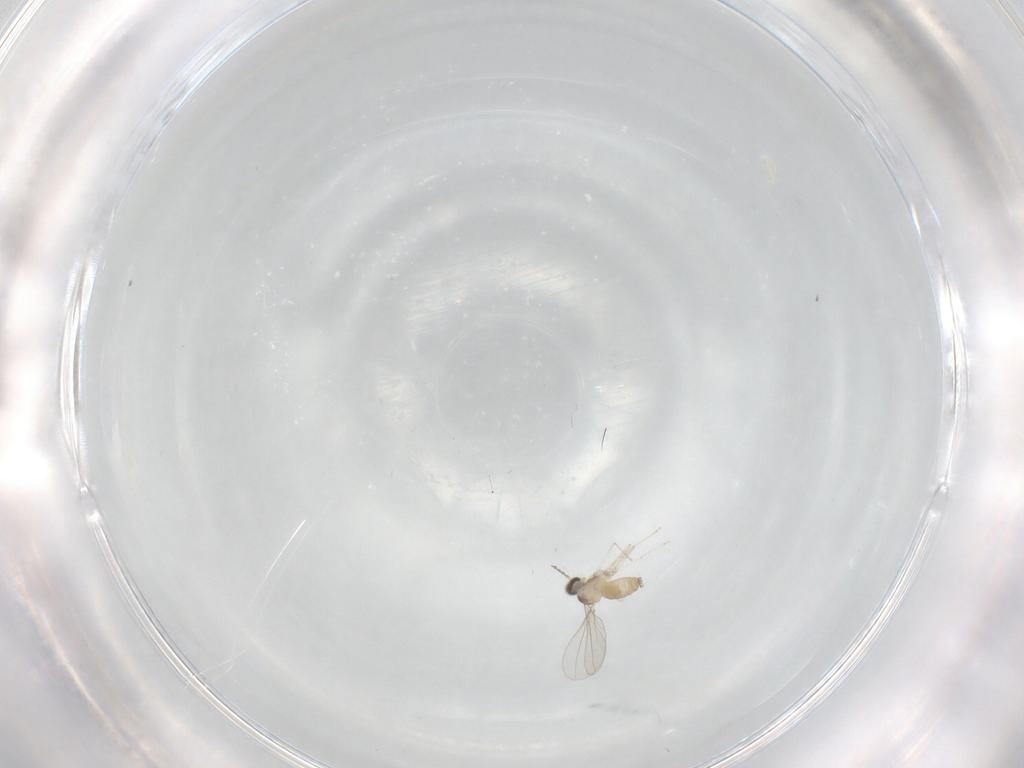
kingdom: Animalia
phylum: Arthropoda
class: Insecta
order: Diptera
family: Cecidomyiidae
